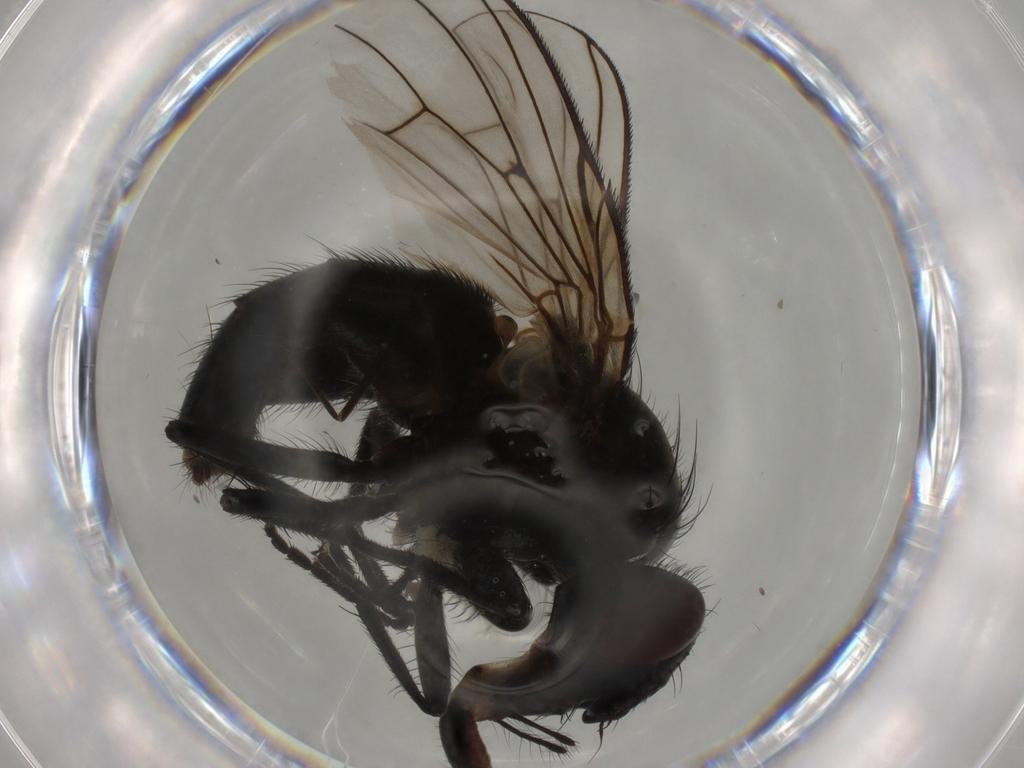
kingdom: Animalia
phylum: Arthropoda
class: Insecta
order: Diptera
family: Muscidae
